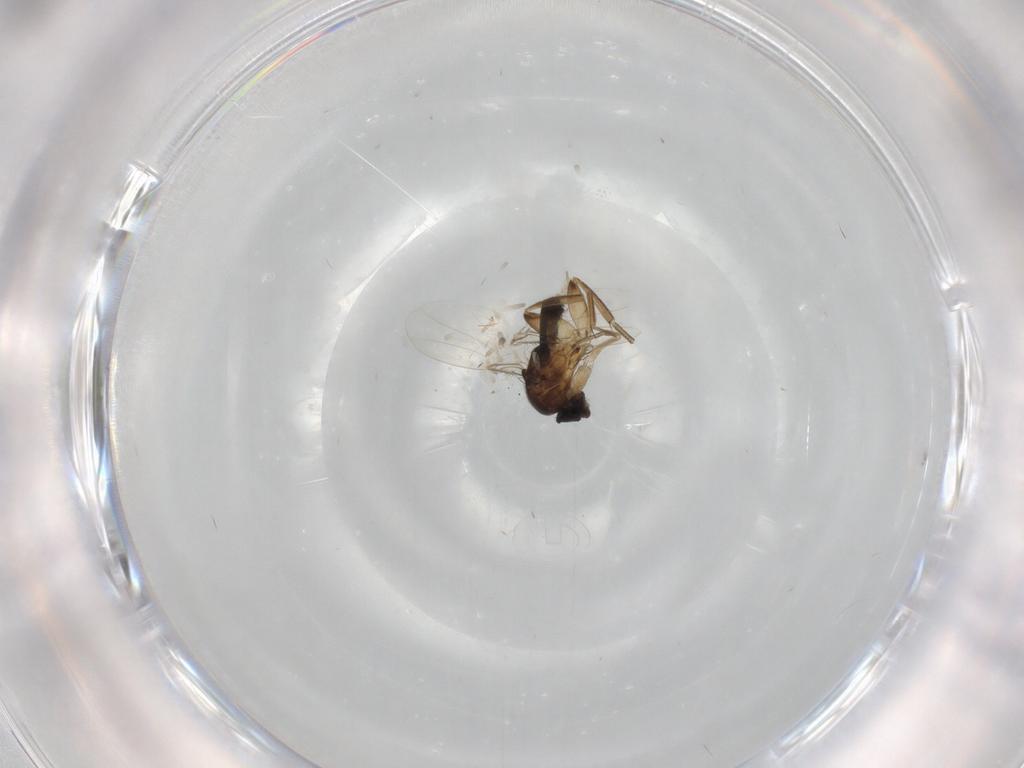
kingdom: Animalia
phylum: Arthropoda
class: Insecta
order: Diptera
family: Phoridae
